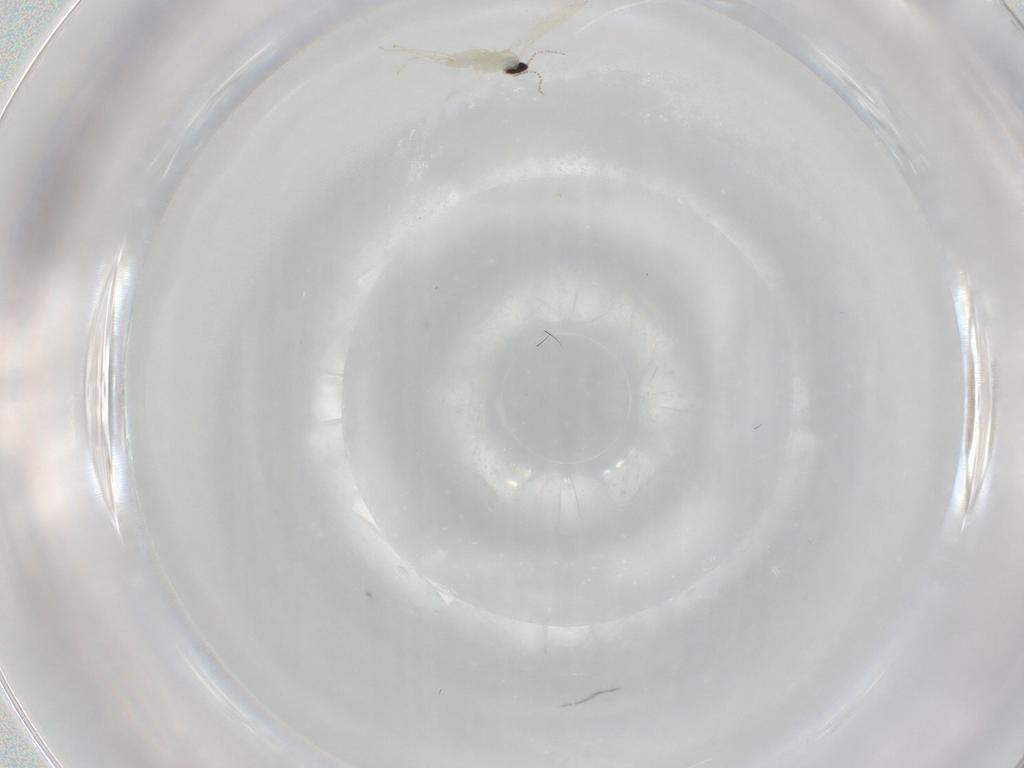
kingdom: Animalia
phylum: Arthropoda
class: Insecta
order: Diptera
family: Cecidomyiidae
